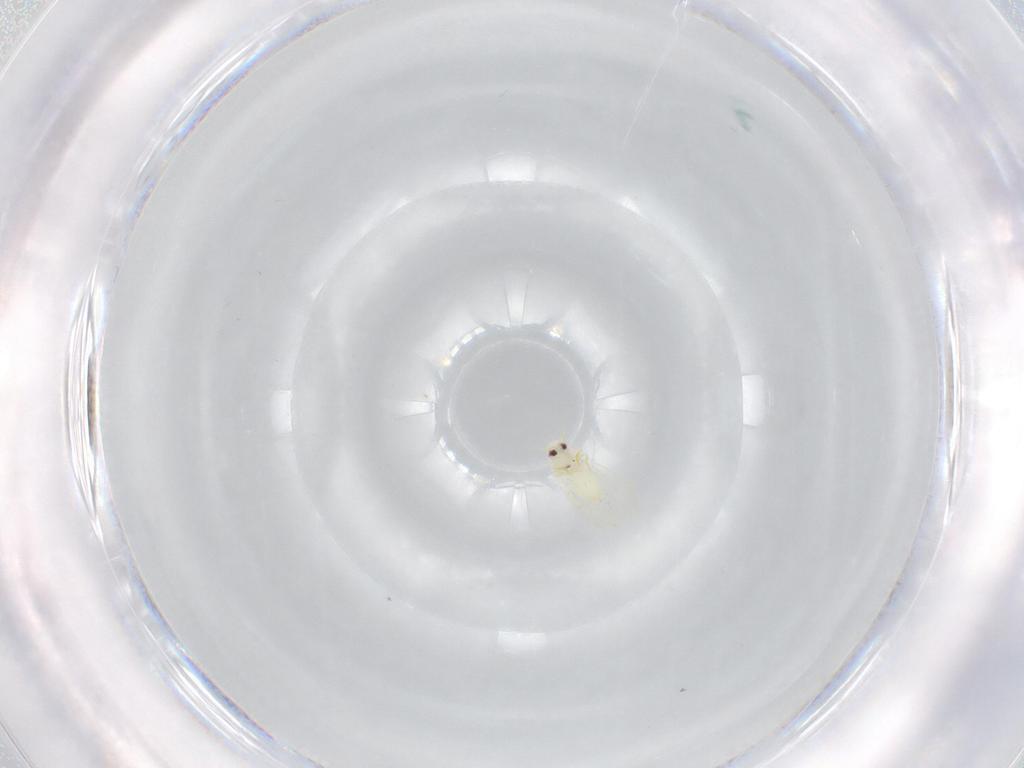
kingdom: Animalia
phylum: Arthropoda
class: Insecta
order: Hemiptera
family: Aleyrodidae
